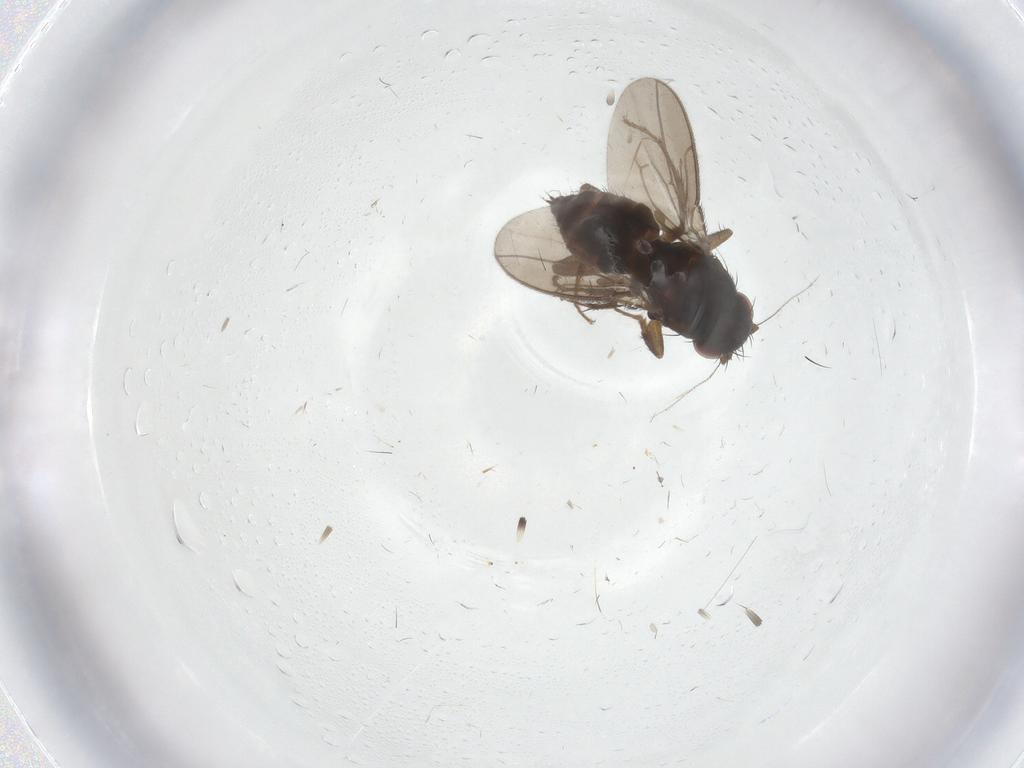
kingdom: Animalia
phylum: Arthropoda
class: Insecta
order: Diptera
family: Sphaeroceridae
